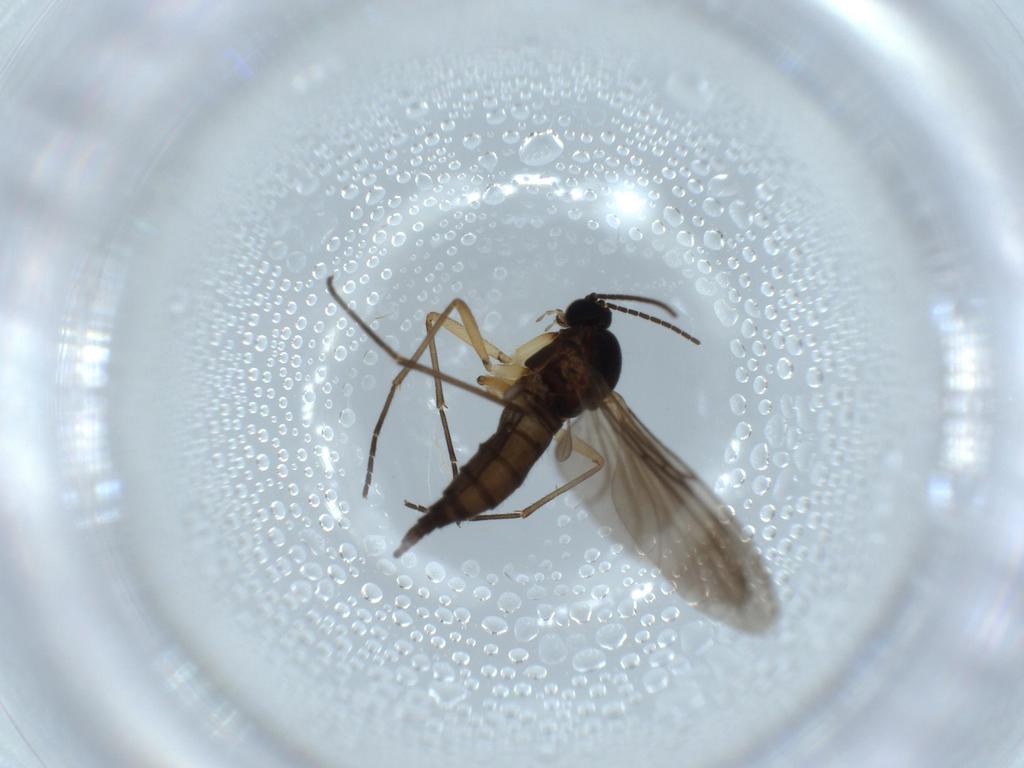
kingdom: Animalia
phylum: Arthropoda
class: Insecta
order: Diptera
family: Sciaridae
